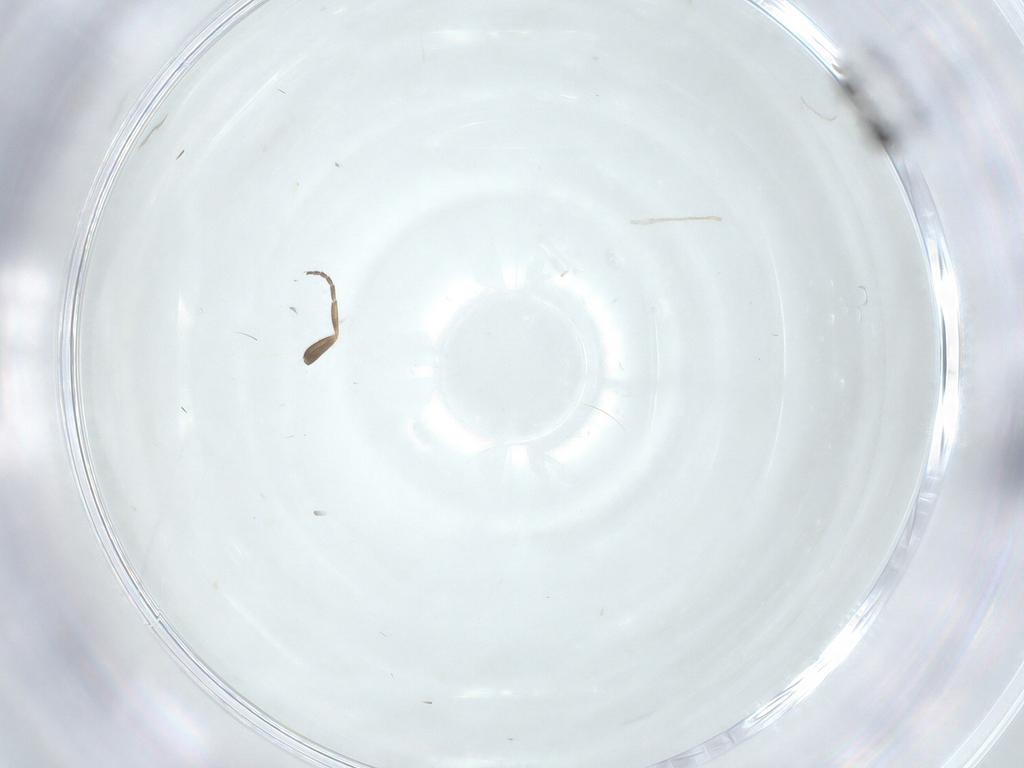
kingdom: Animalia
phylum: Arthropoda
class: Insecta
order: Hymenoptera
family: Scelionidae
